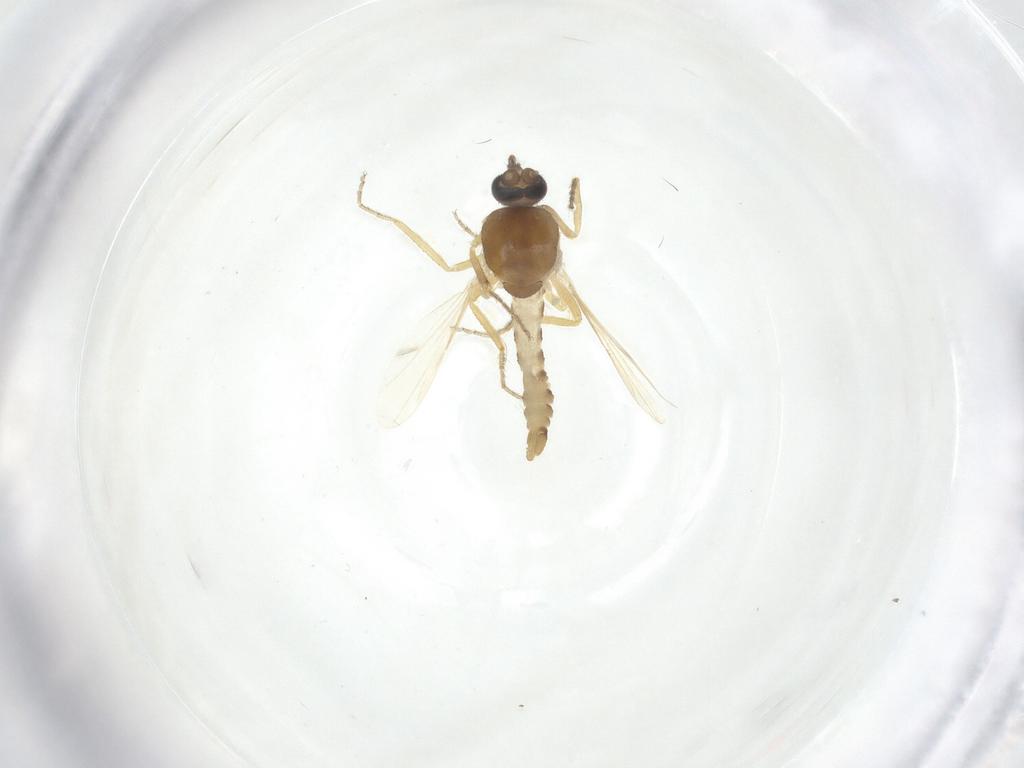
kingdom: Animalia
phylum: Arthropoda
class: Insecta
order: Diptera
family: Ceratopogonidae
